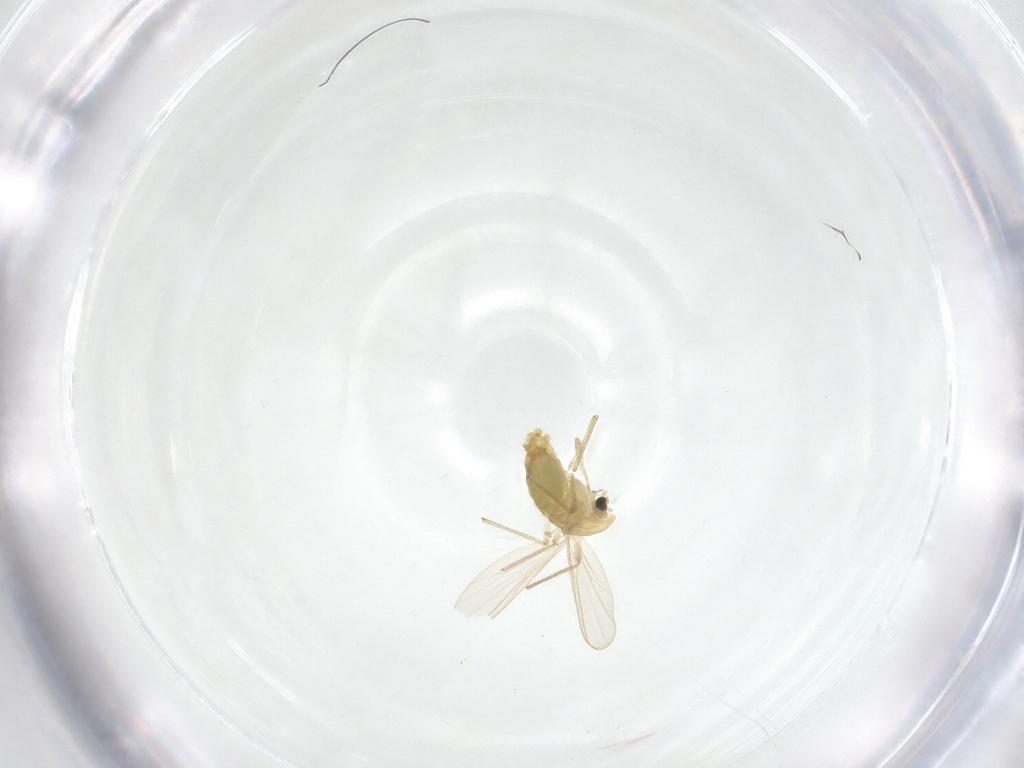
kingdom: Animalia
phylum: Arthropoda
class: Insecta
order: Diptera
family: Chironomidae
